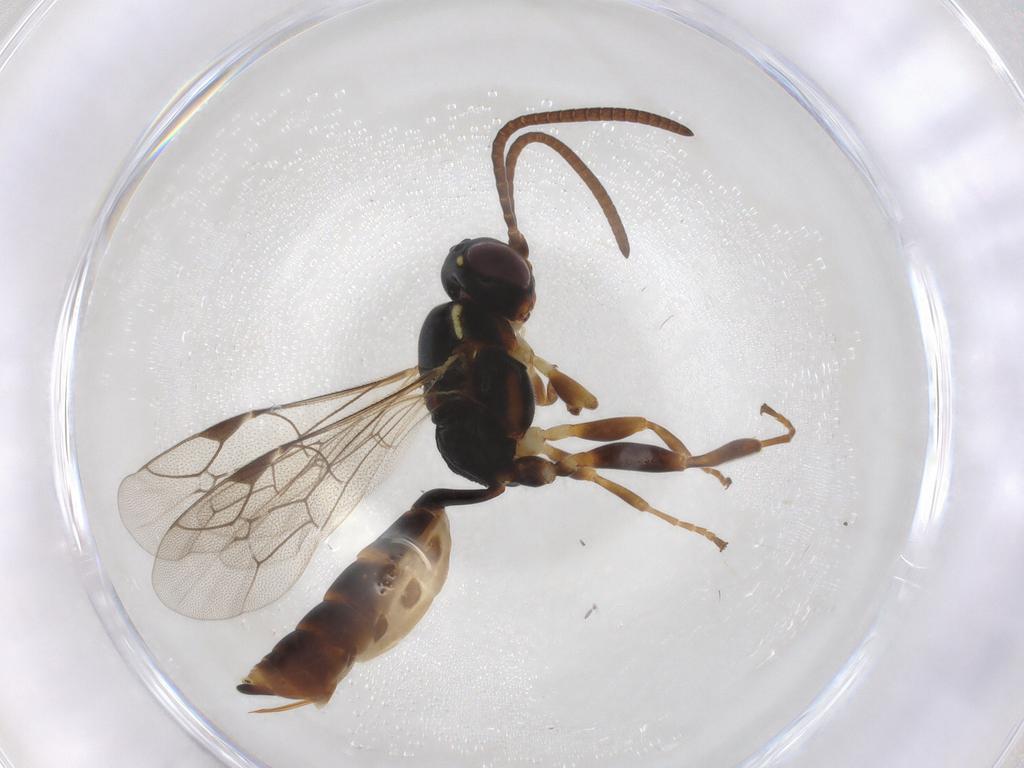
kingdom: Animalia
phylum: Arthropoda
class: Insecta
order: Hymenoptera
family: Ichneumonidae
